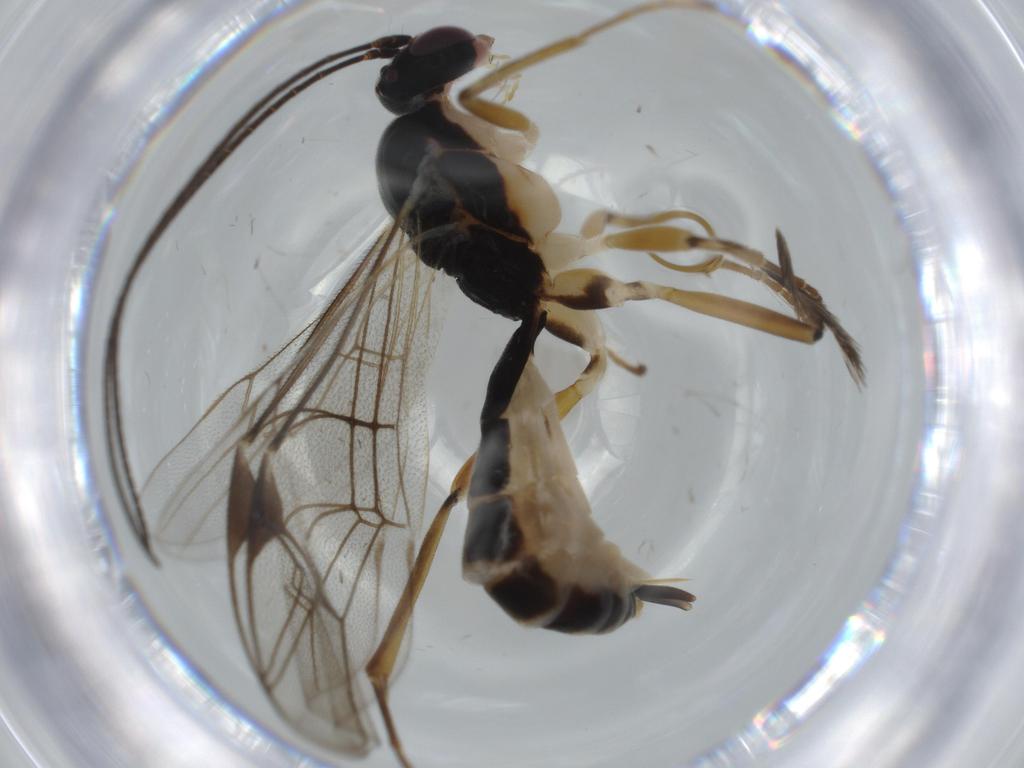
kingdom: Animalia
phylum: Arthropoda
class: Insecta
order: Hymenoptera
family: Ichneumonidae
